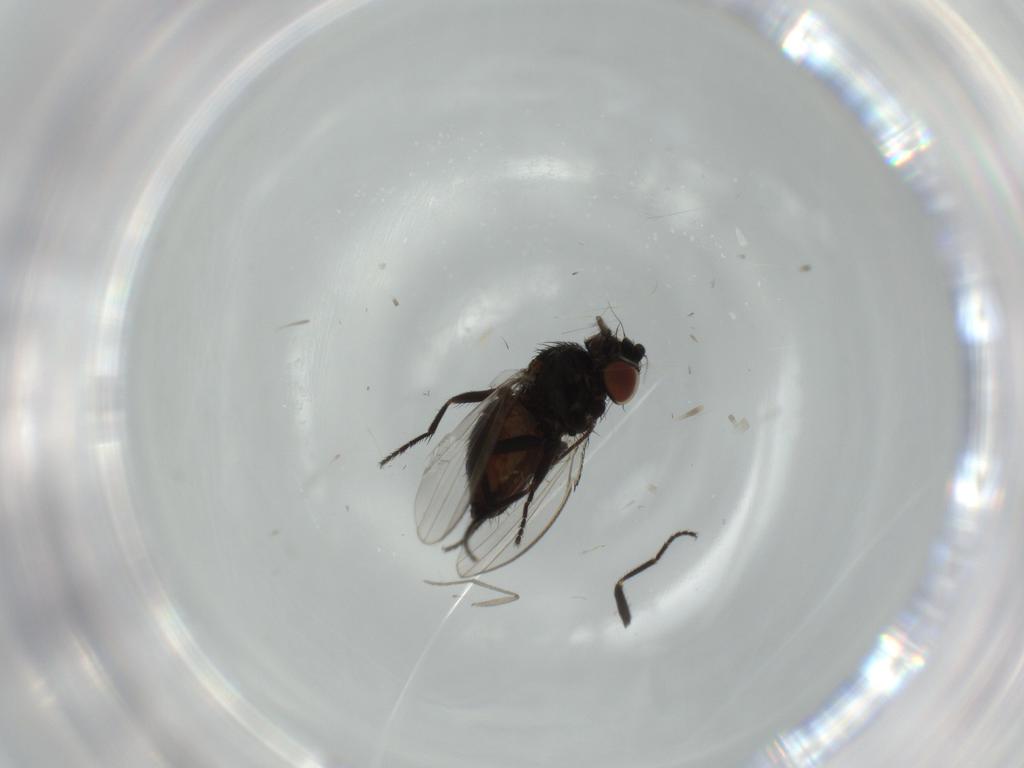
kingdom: Animalia
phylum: Arthropoda
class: Insecta
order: Diptera
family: Milichiidae
